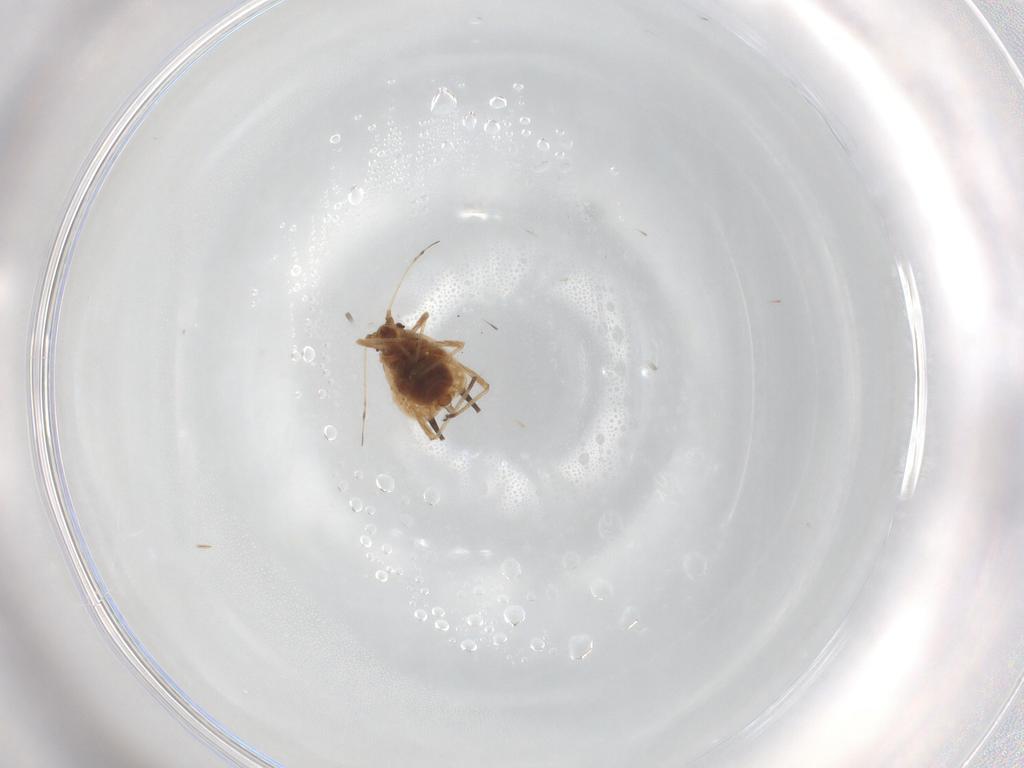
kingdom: Animalia
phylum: Arthropoda
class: Insecta
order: Hemiptera
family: Aphididae
